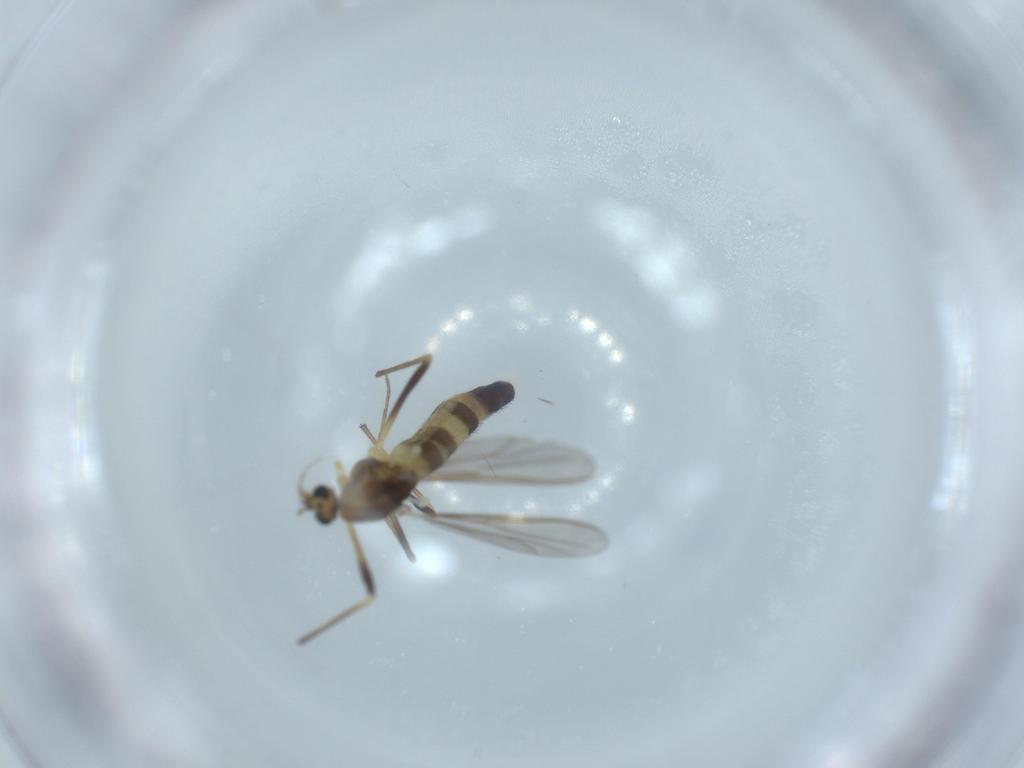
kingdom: Animalia
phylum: Arthropoda
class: Insecta
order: Diptera
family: Chironomidae
